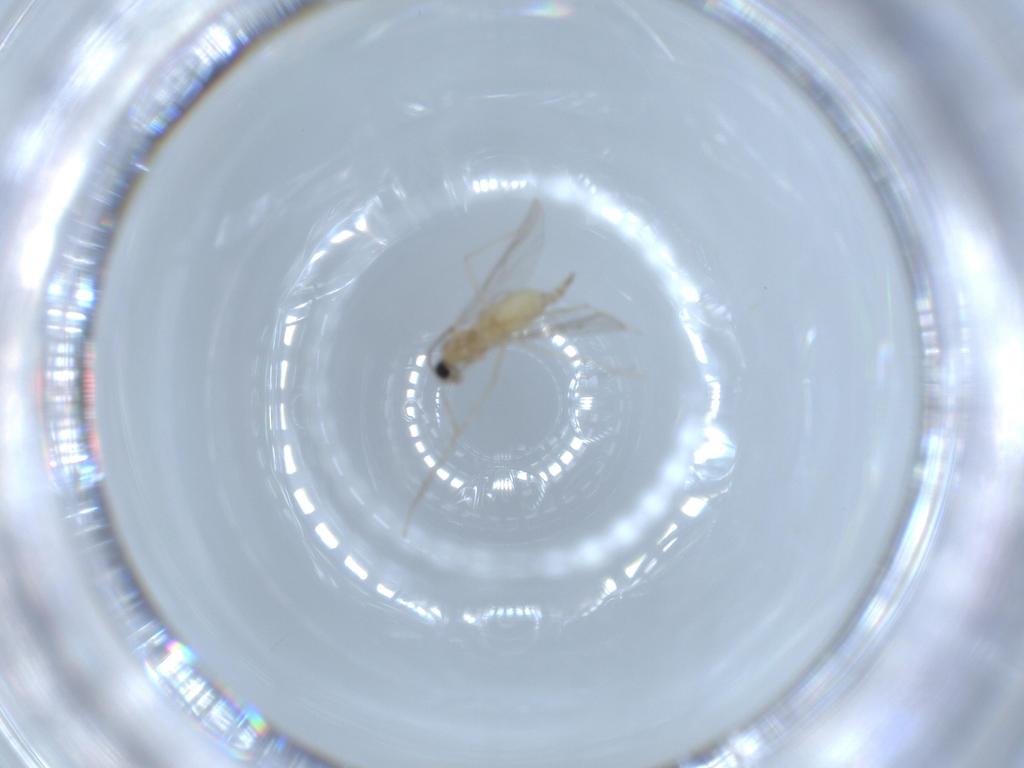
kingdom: Animalia
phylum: Arthropoda
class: Insecta
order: Diptera
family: Cecidomyiidae
